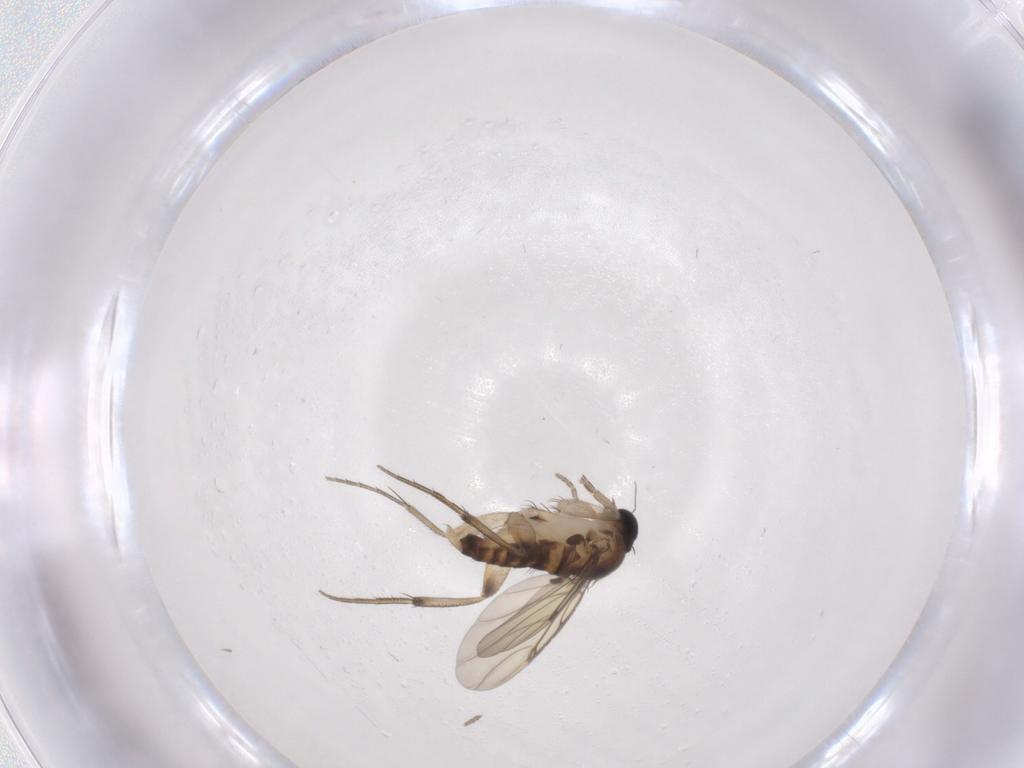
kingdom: Animalia
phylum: Arthropoda
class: Insecta
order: Diptera
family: Phoridae
